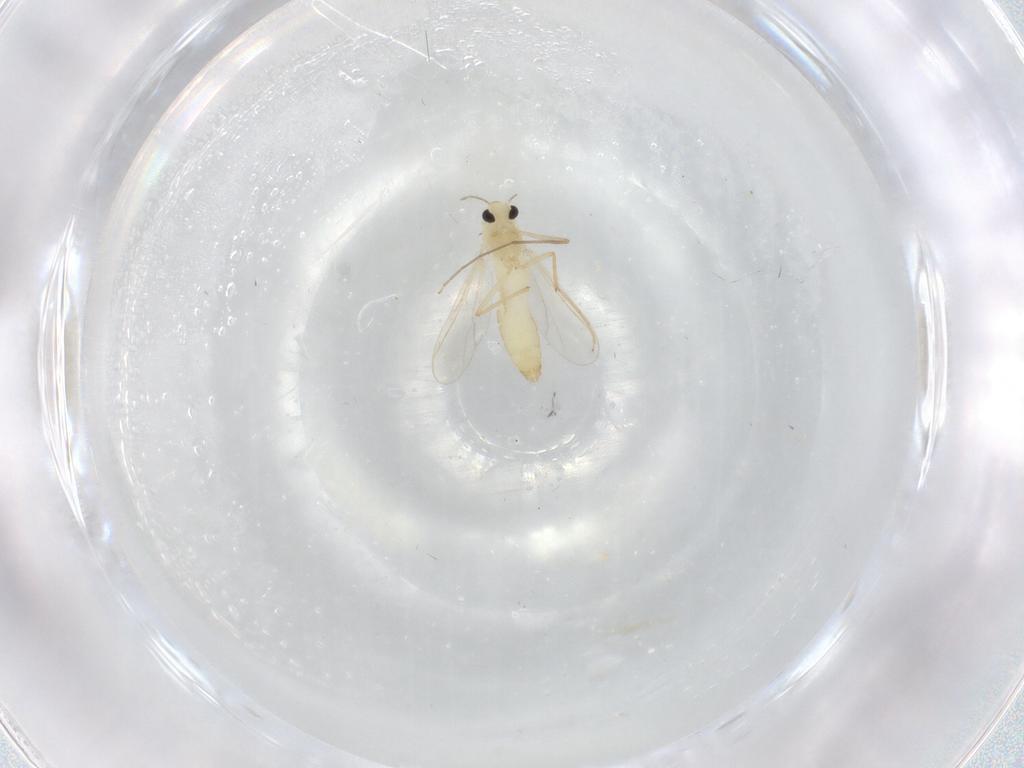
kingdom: Animalia
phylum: Arthropoda
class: Insecta
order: Diptera
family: Chironomidae
